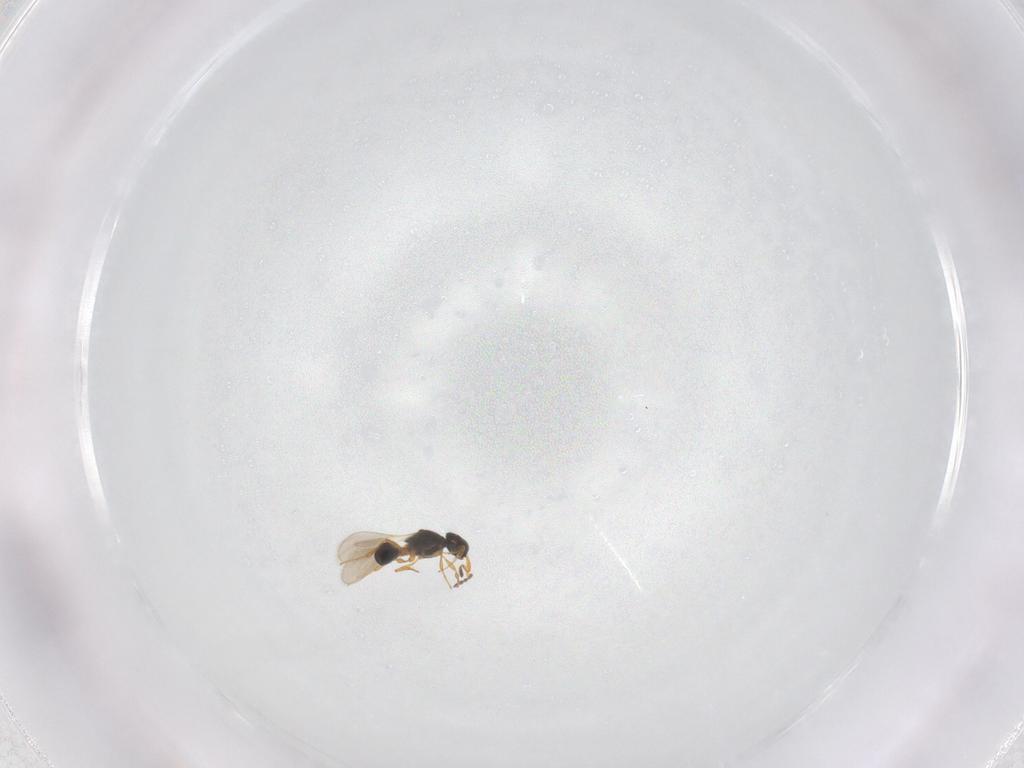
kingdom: Animalia
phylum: Arthropoda
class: Insecta
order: Hymenoptera
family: Platygastridae
